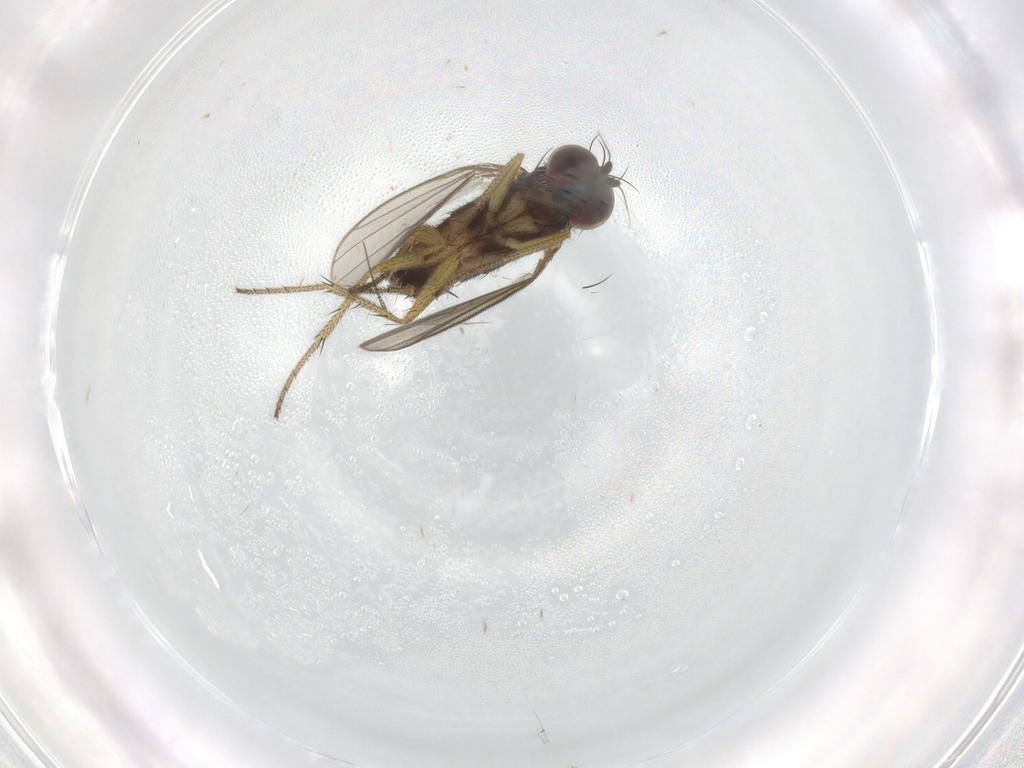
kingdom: Animalia
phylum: Arthropoda
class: Insecta
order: Diptera
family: Dolichopodidae
